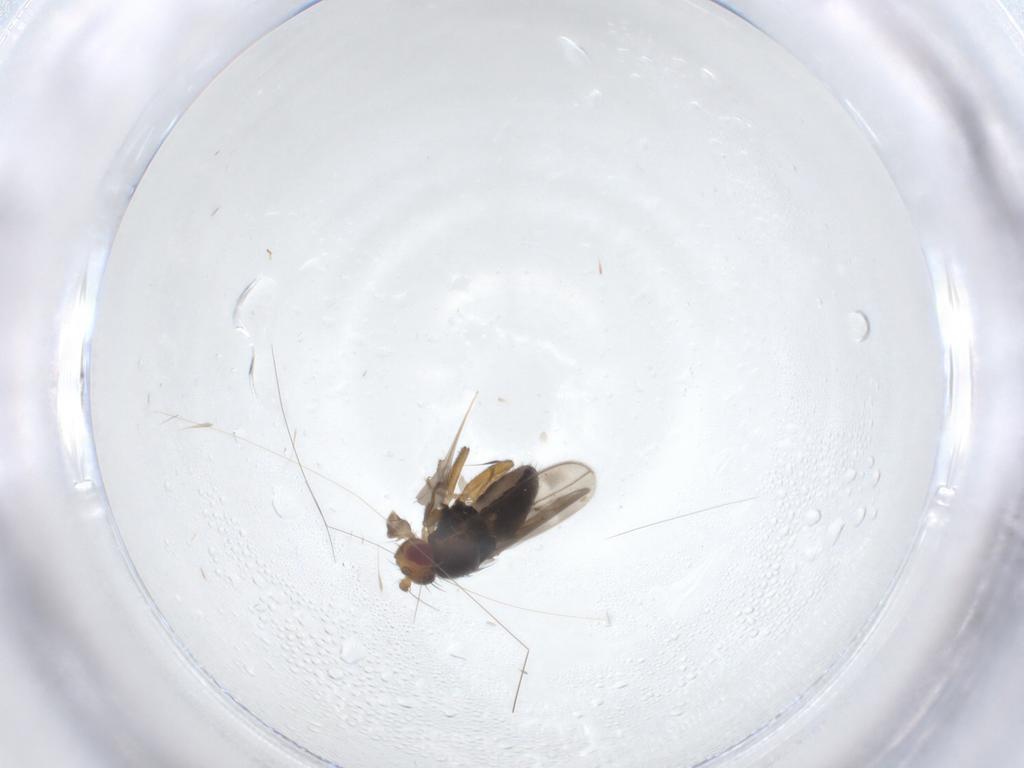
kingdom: Animalia
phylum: Arthropoda
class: Insecta
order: Diptera
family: Sphaeroceridae
